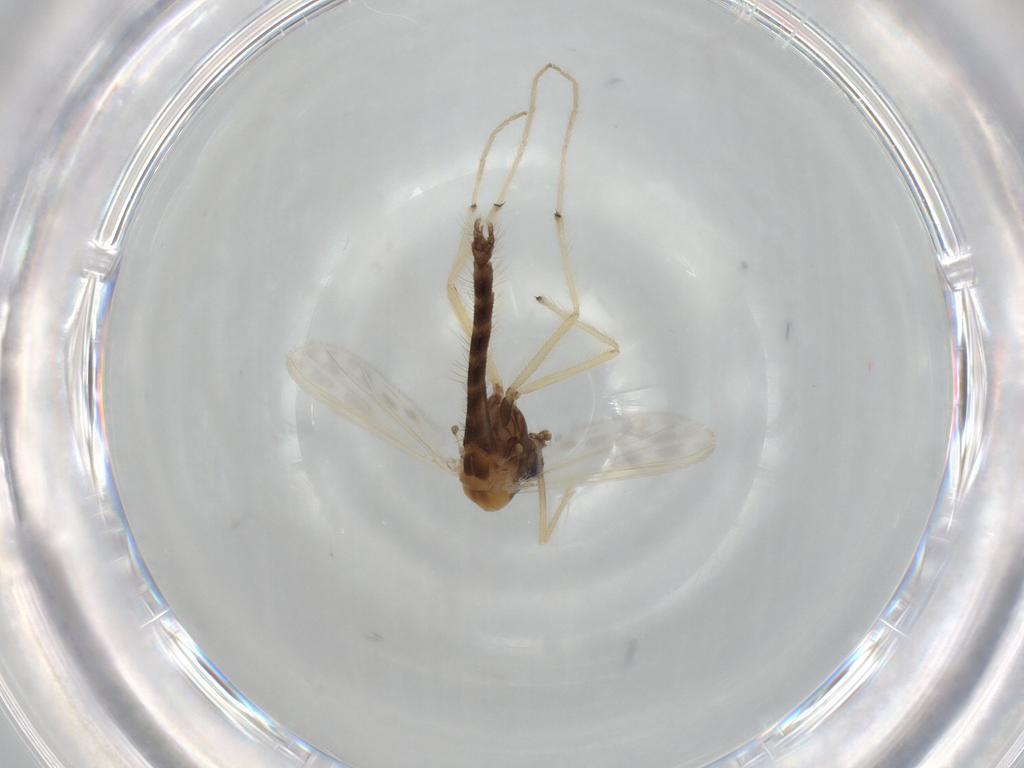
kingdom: Animalia
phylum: Arthropoda
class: Insecta
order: Diptera
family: Chironomidae
